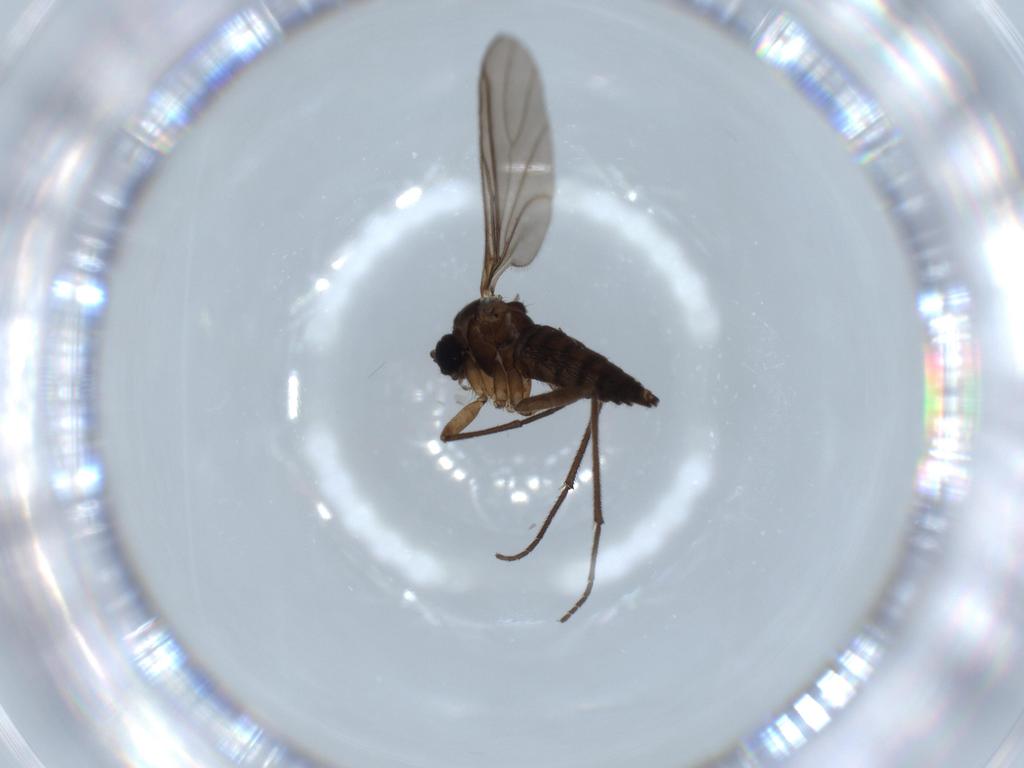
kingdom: Animalia
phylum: Arthropoda
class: Insecta
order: Diptera
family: Sciaridae
